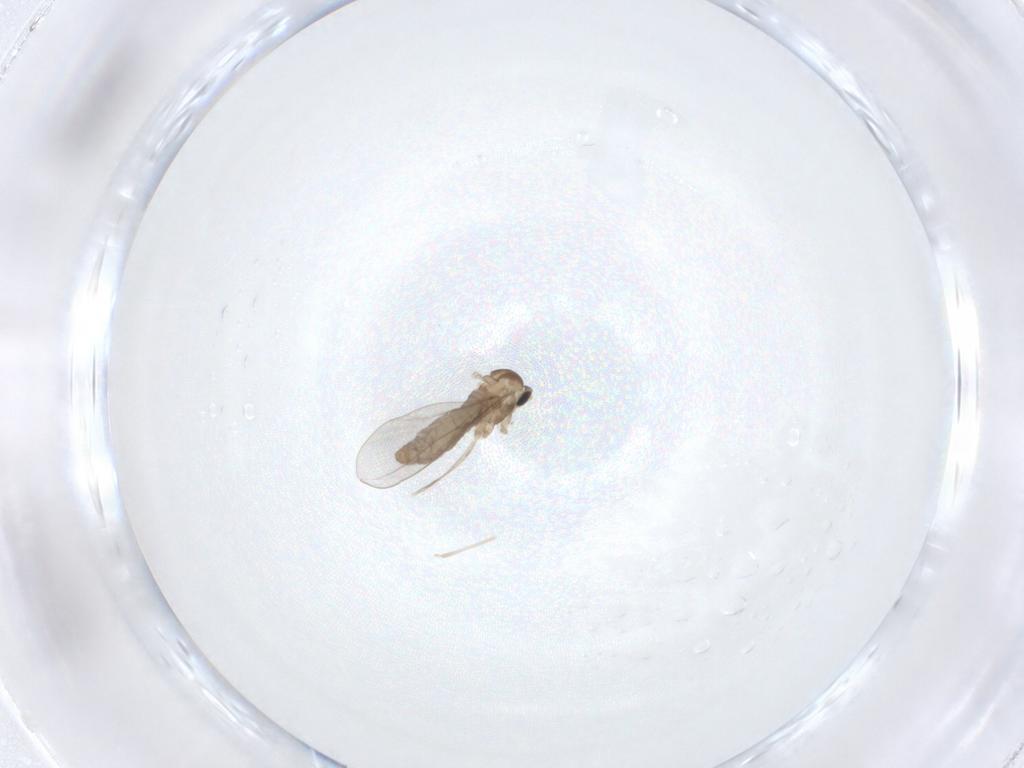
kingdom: Animalia
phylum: Arthropoda
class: Insecta
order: Diptera
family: Cecidomyiidae
